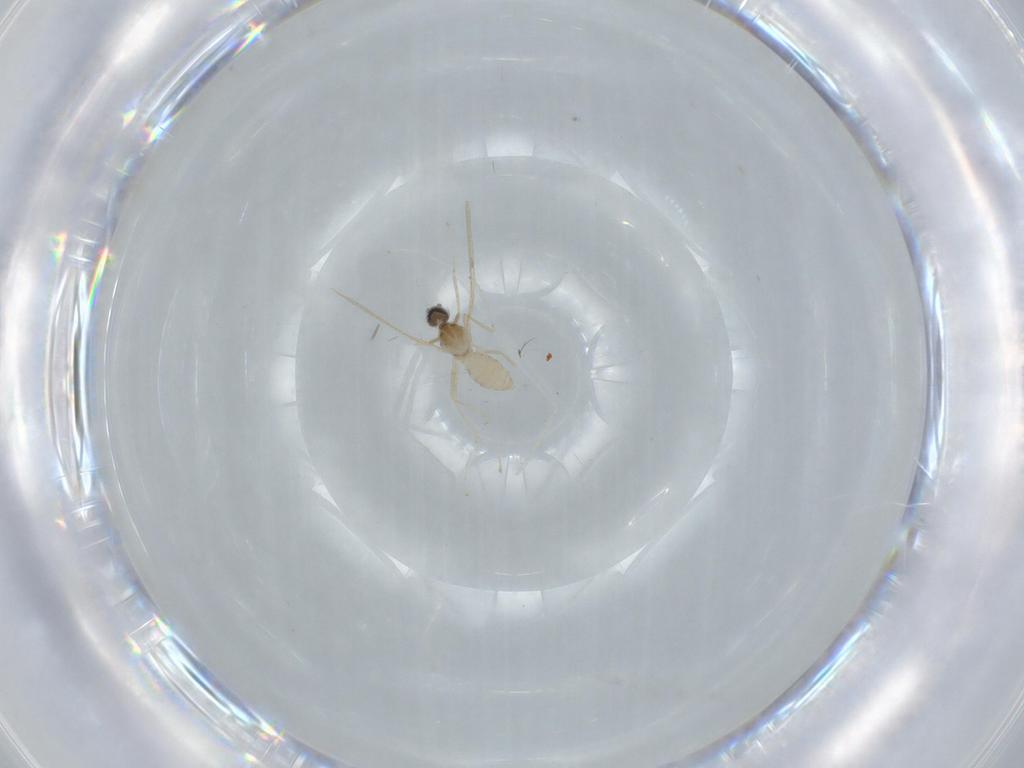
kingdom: Animalia
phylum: Arthropoda
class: Insecta
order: Diptera
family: Cecidomyiidae
